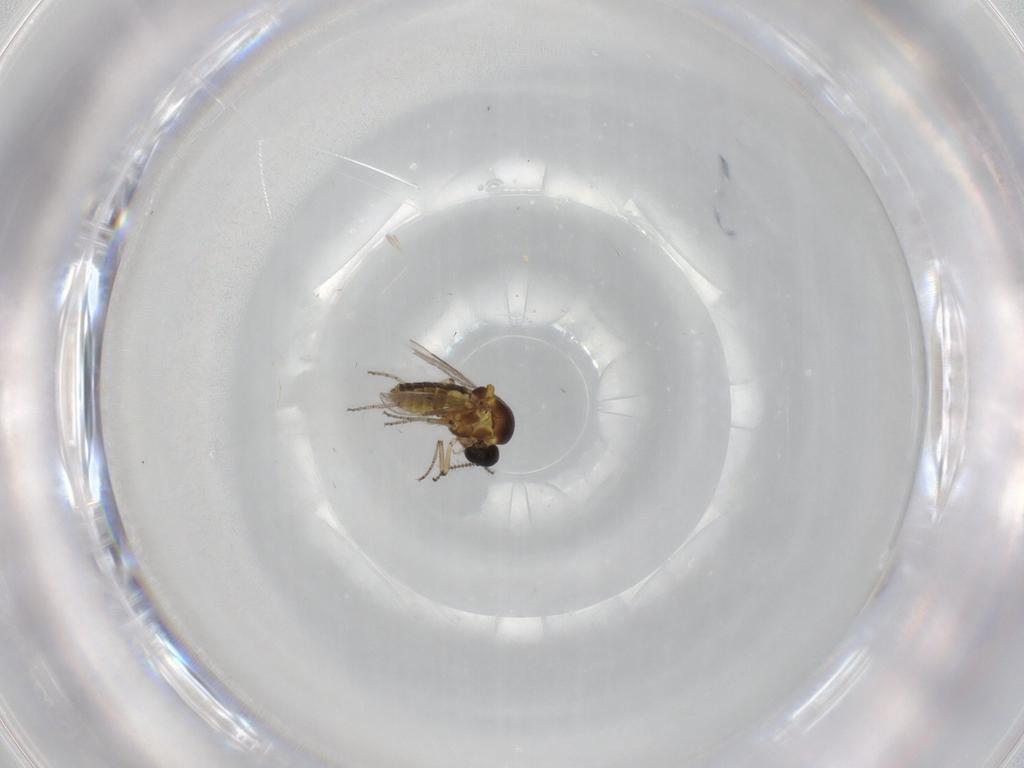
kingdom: Animalia
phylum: Arthropoda
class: Insecta
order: Diptera
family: Ceratopogonidae
